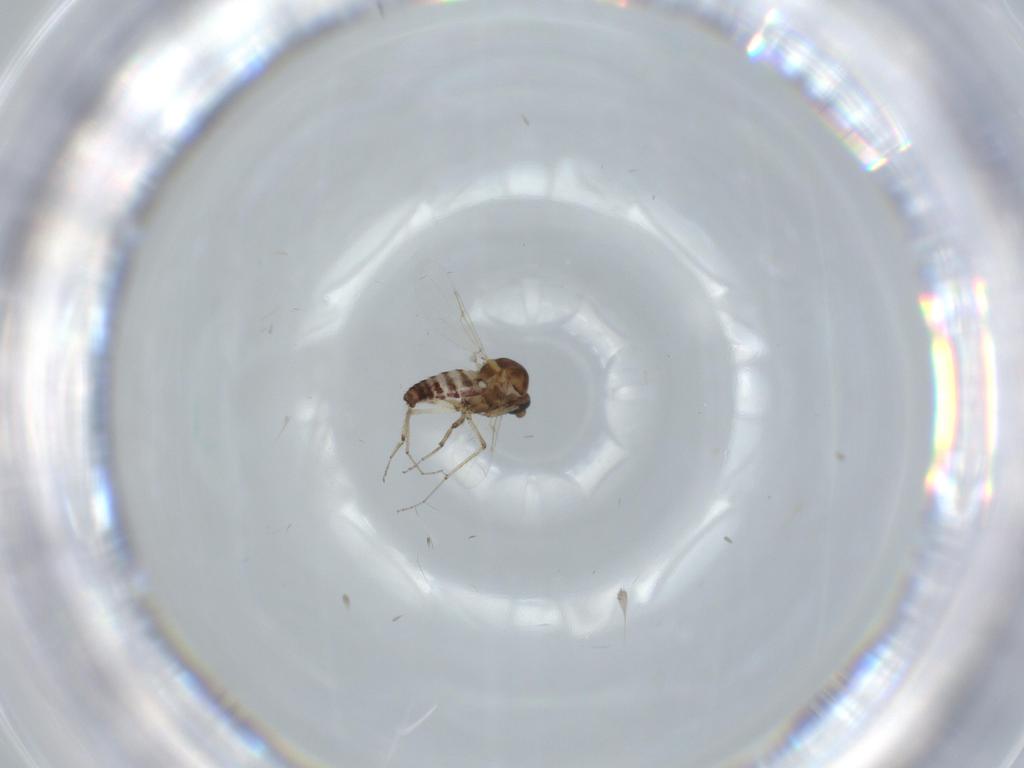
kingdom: Animalia
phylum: Arthropoda
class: Insecta
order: Diptera
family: Ceratopogonidae
